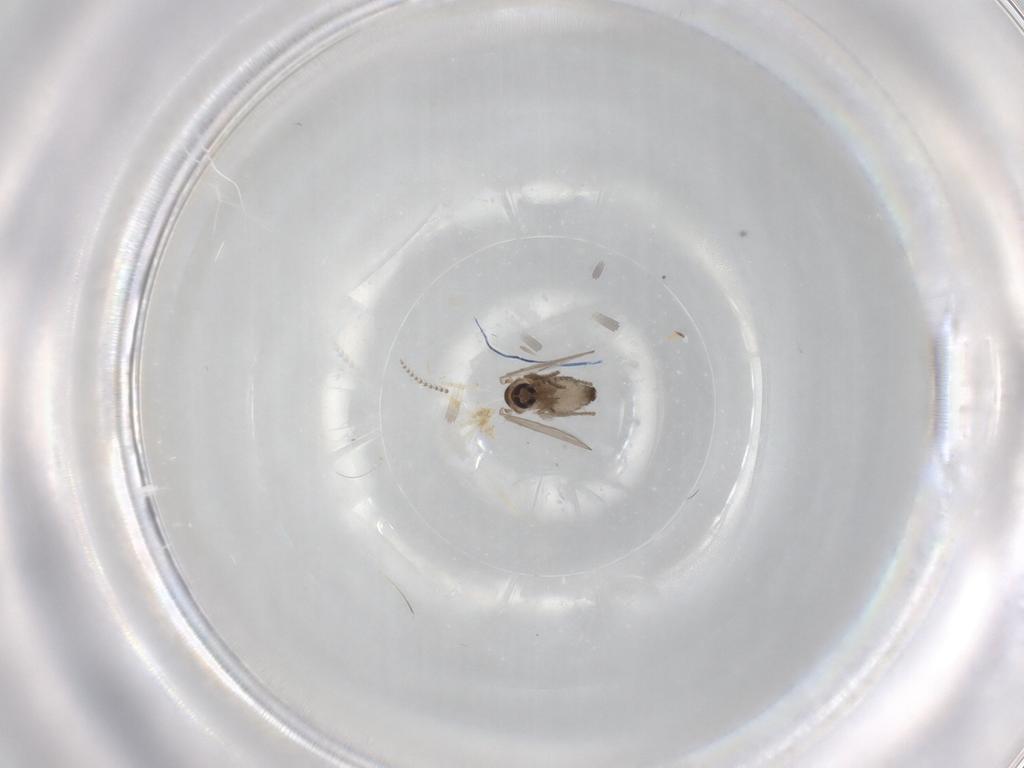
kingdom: Animalia
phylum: Arthropoda
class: Insecta
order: Diptera
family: Psychodidae
